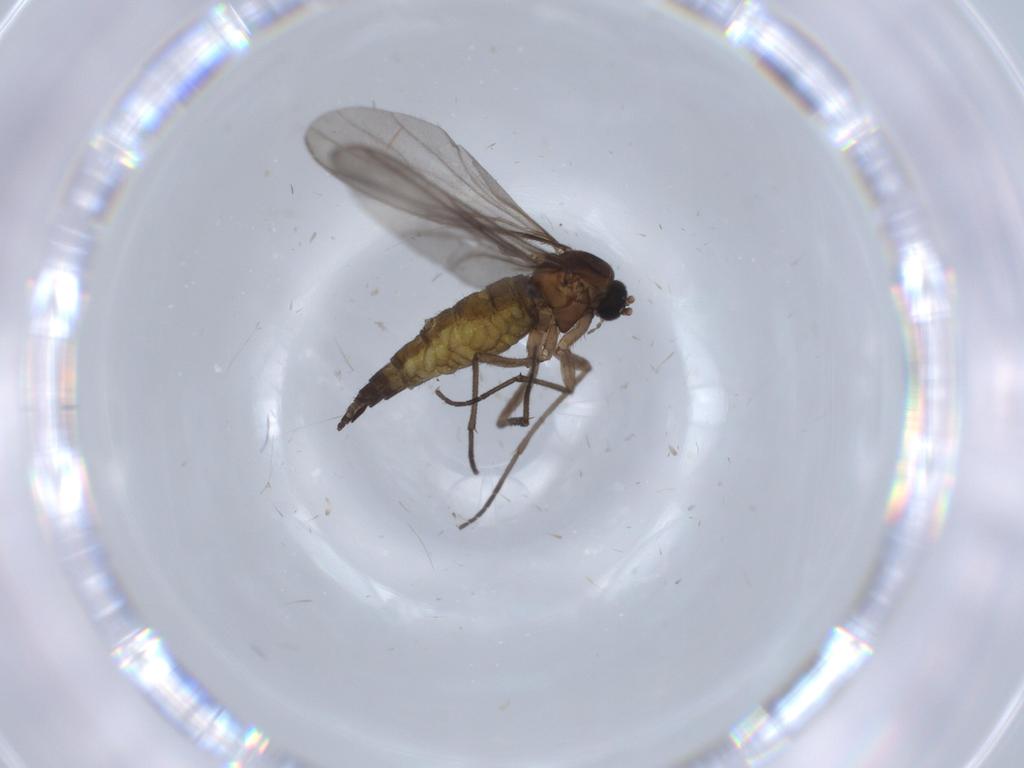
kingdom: Animalia
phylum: Arthropoda
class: Insecta
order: Diptera
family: Sciaridae
